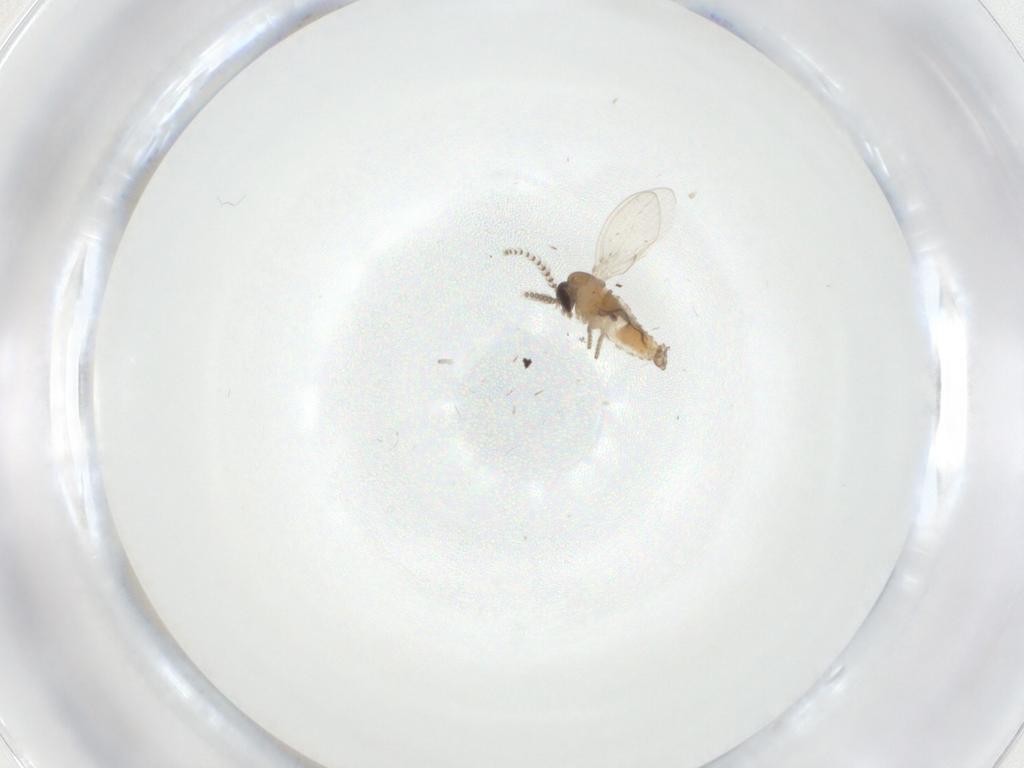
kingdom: Animalia
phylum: Arthropoda
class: Insecta
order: Diptera
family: Psychodidae
